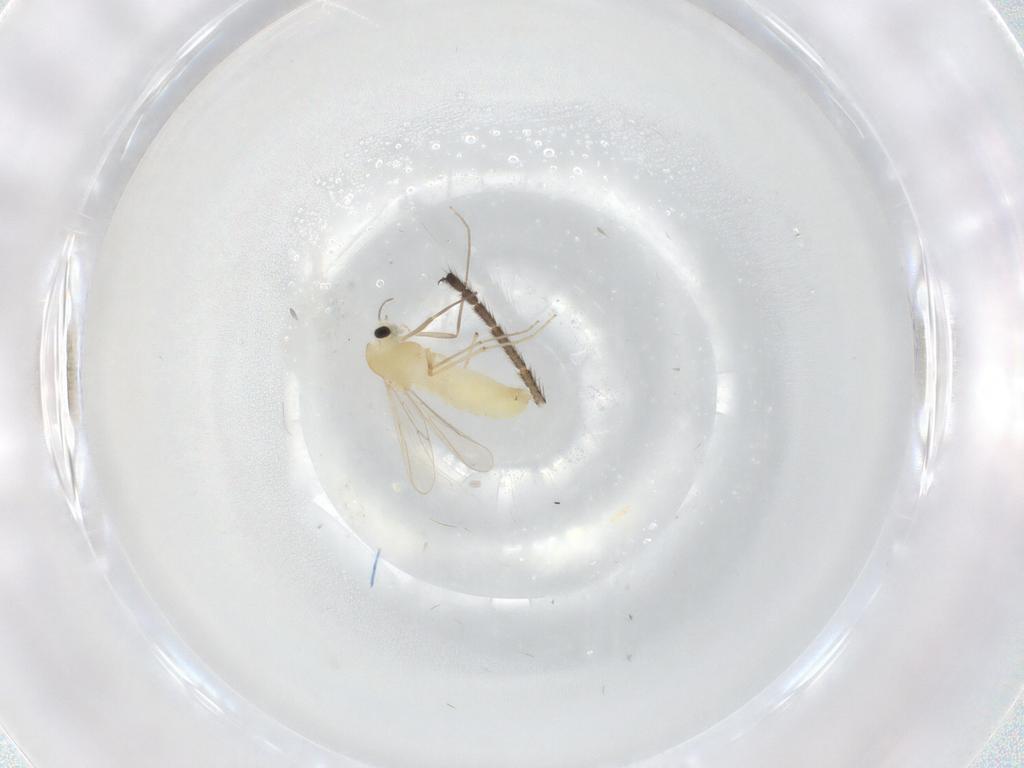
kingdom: Animalia
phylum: Arthropoda
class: Insecta
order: Diptera
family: Chironomidae
